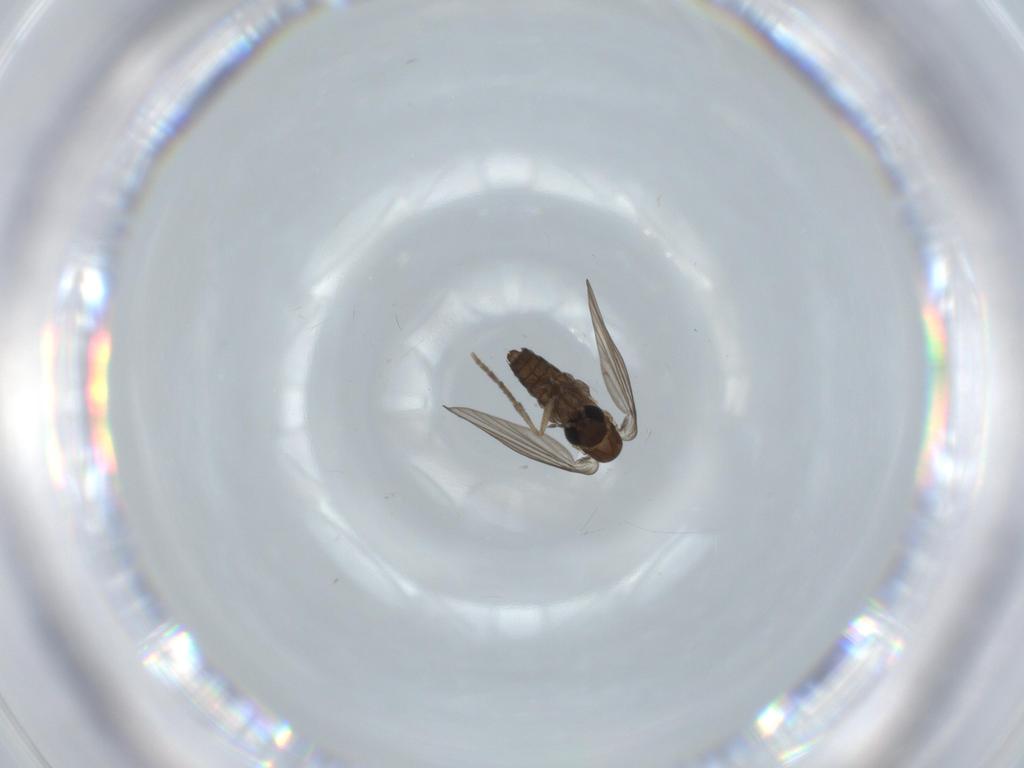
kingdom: Animalia
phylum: Arthropoda
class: Insecta
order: Diptera
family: Psychodidae
